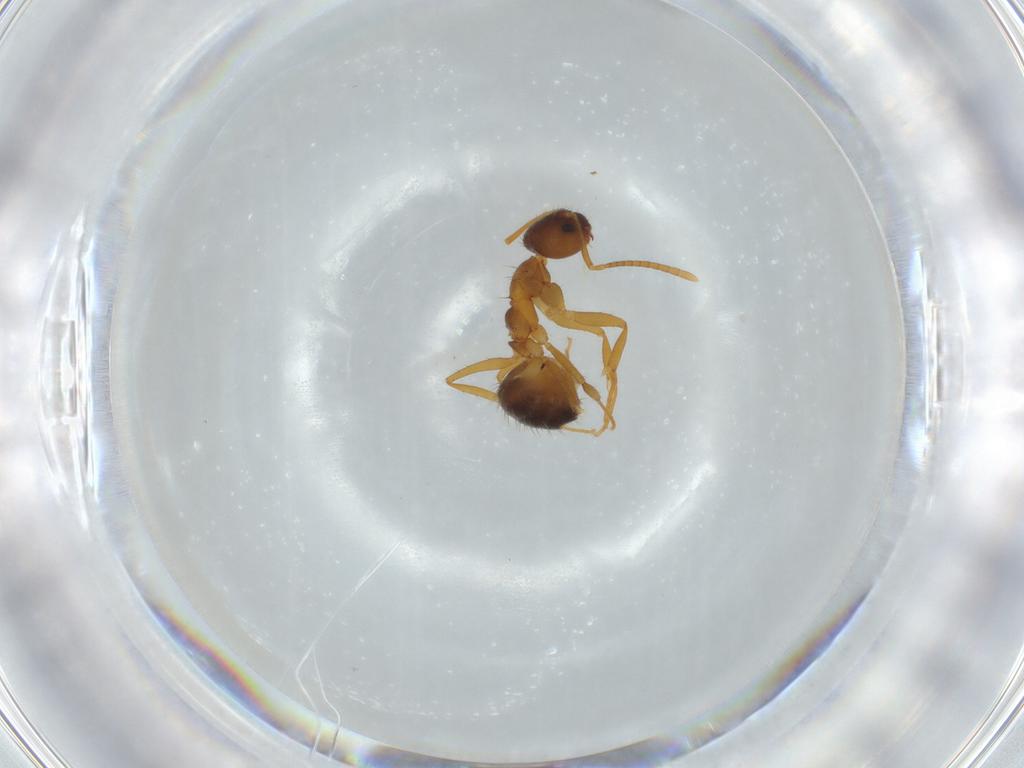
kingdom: Animalia
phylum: Arthropoda
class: Insecta
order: Hymenoptera
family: Formicidae
